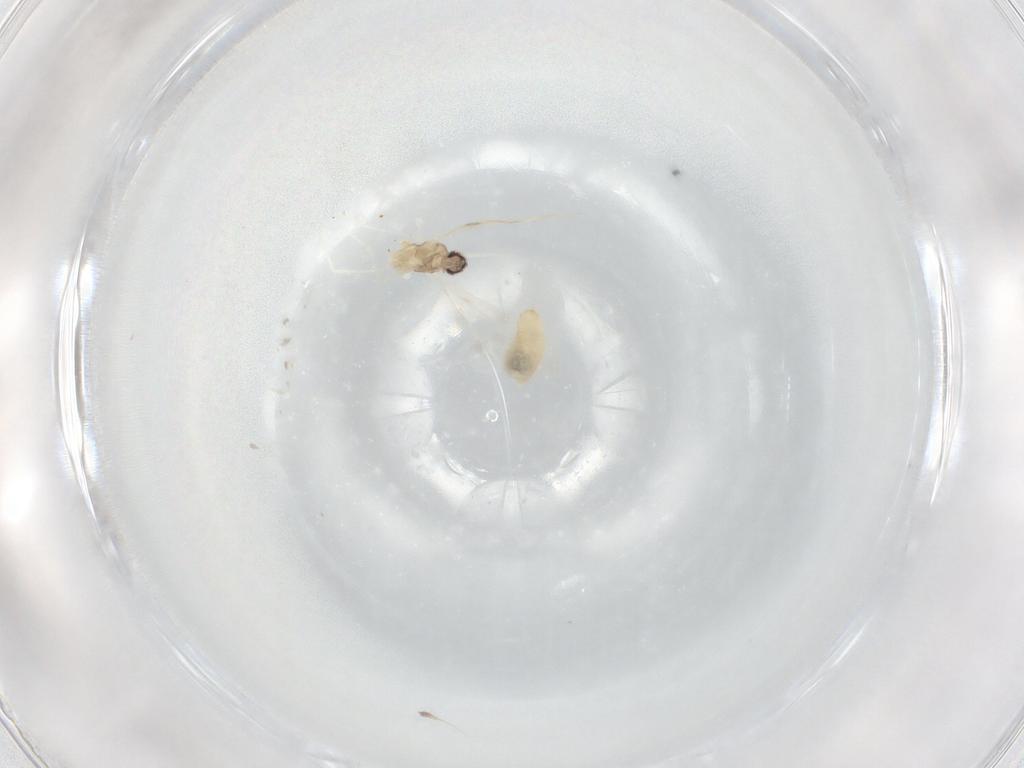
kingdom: Animalia
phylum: Arthropoda
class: Insecta
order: Diptera
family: Cecidomyiidae
